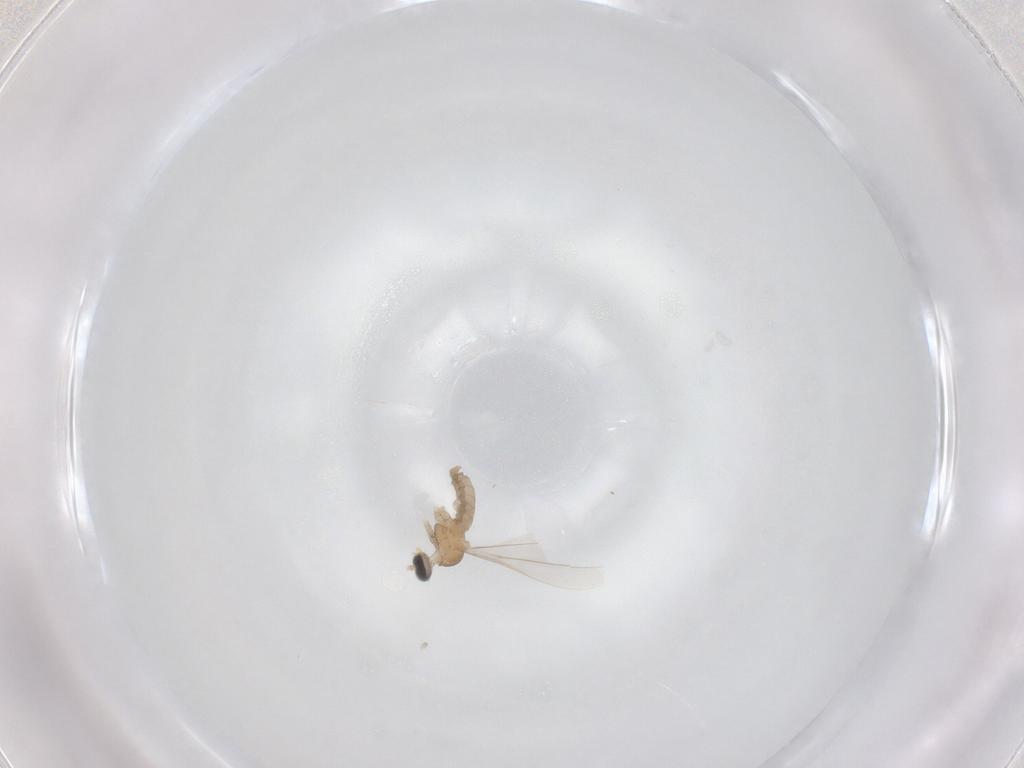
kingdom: Animalia
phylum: Arthropoda
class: Insecta
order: Diptera
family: Cecidomyiidae
